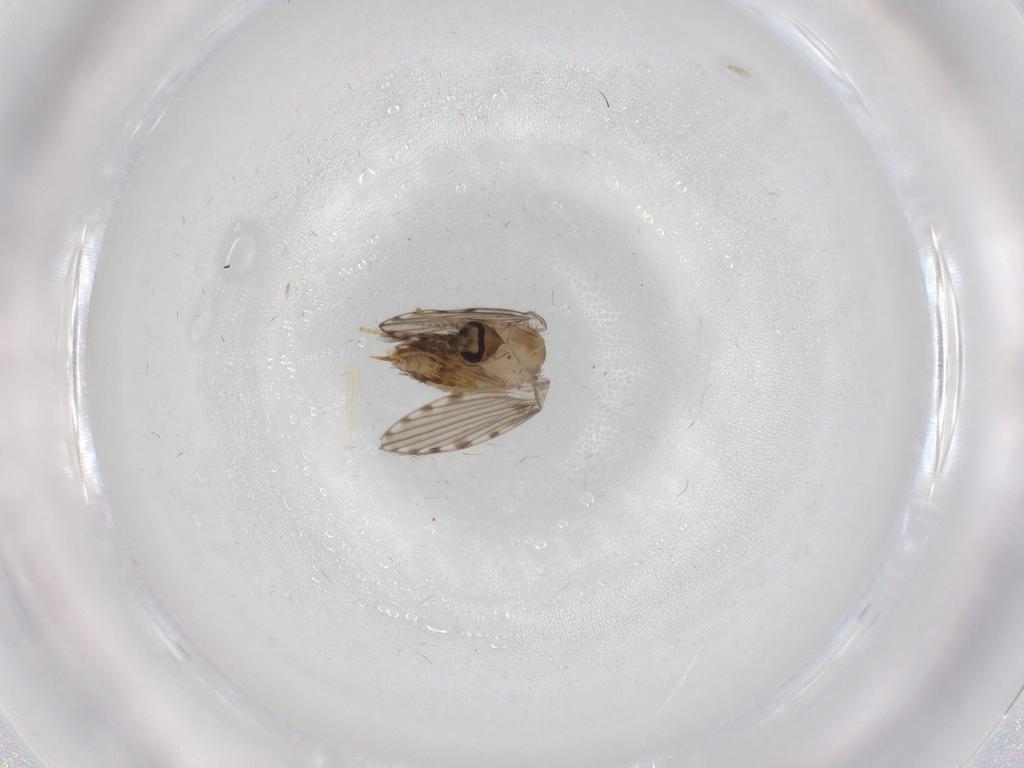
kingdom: Animalia
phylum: Arthropoda
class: Insecta
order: Diptera
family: Psychodidae
